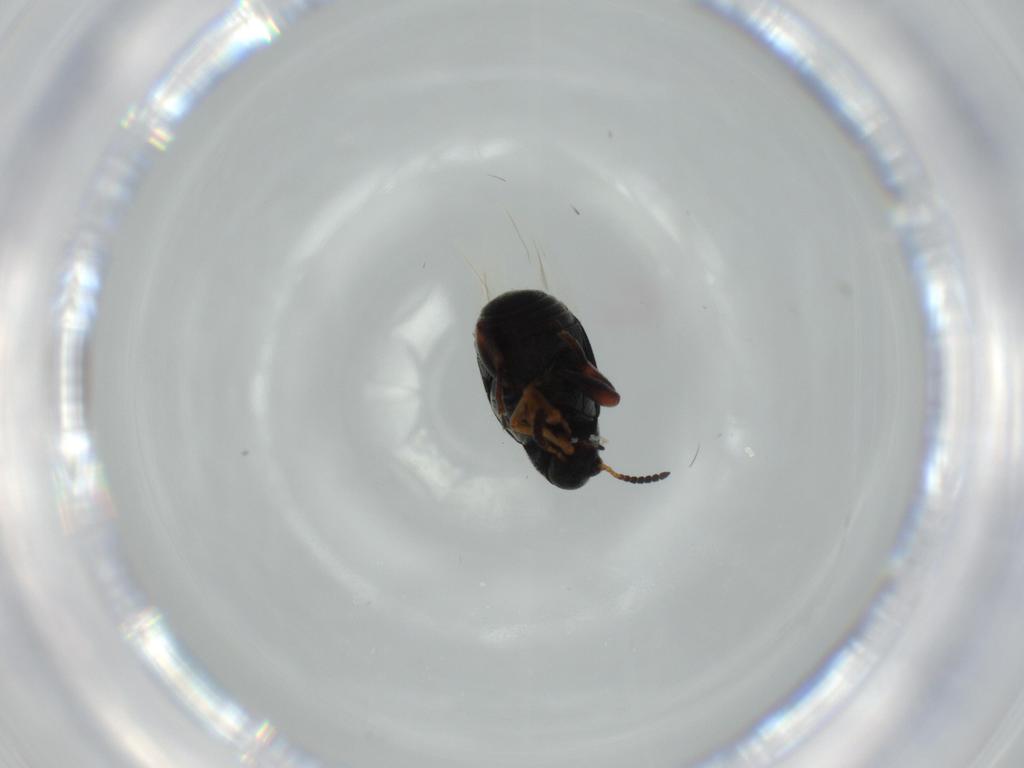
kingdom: Animalia
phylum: Arthropoda
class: Insecta
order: Coleoptera
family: Chrysomelidae
